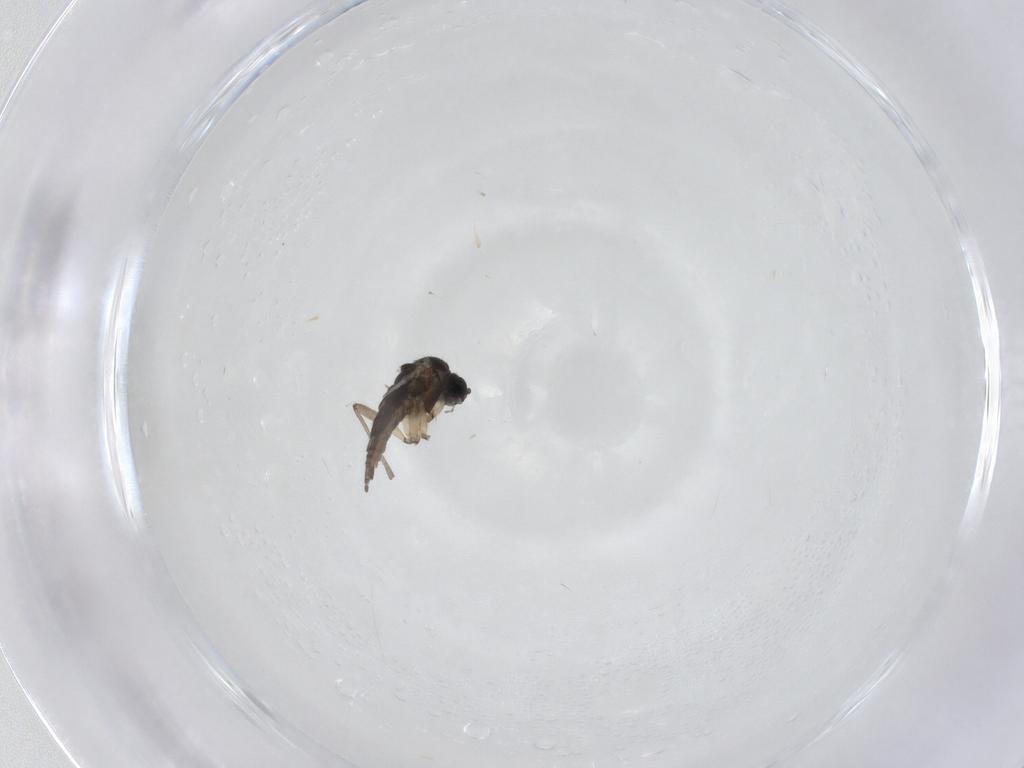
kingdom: Animalia
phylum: Arthropoda
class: Insecta
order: Diptera
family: Sciaridae
